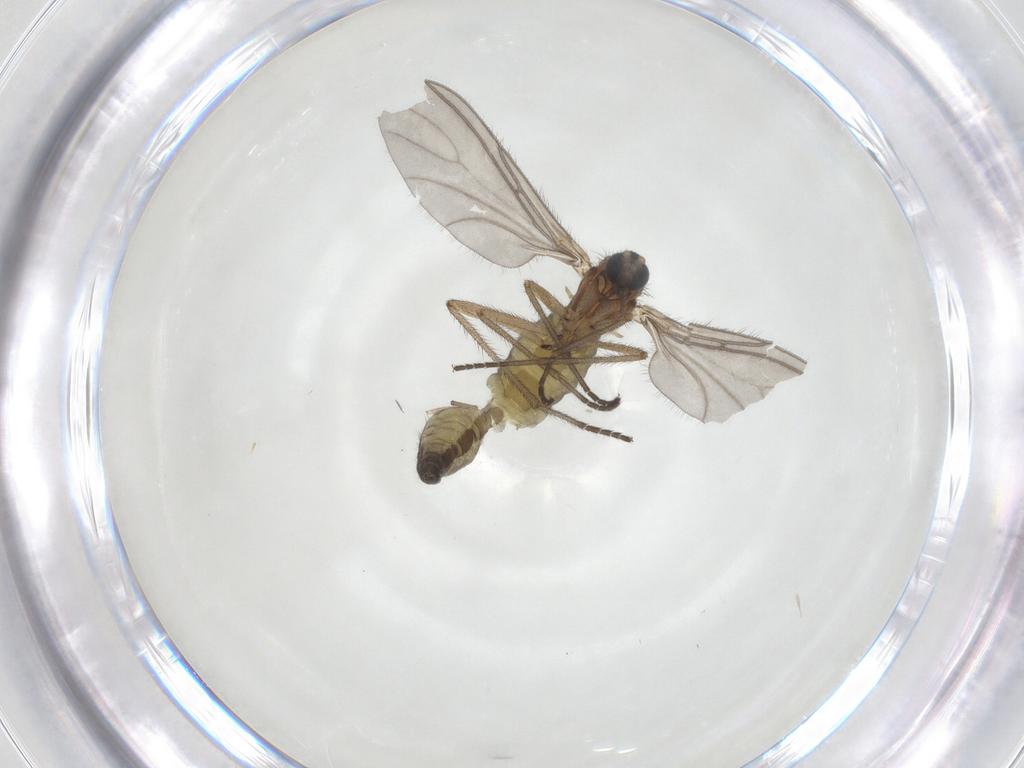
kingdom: Animalia
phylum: Arthropoda
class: Insecta
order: Diptera
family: Sciaridae
